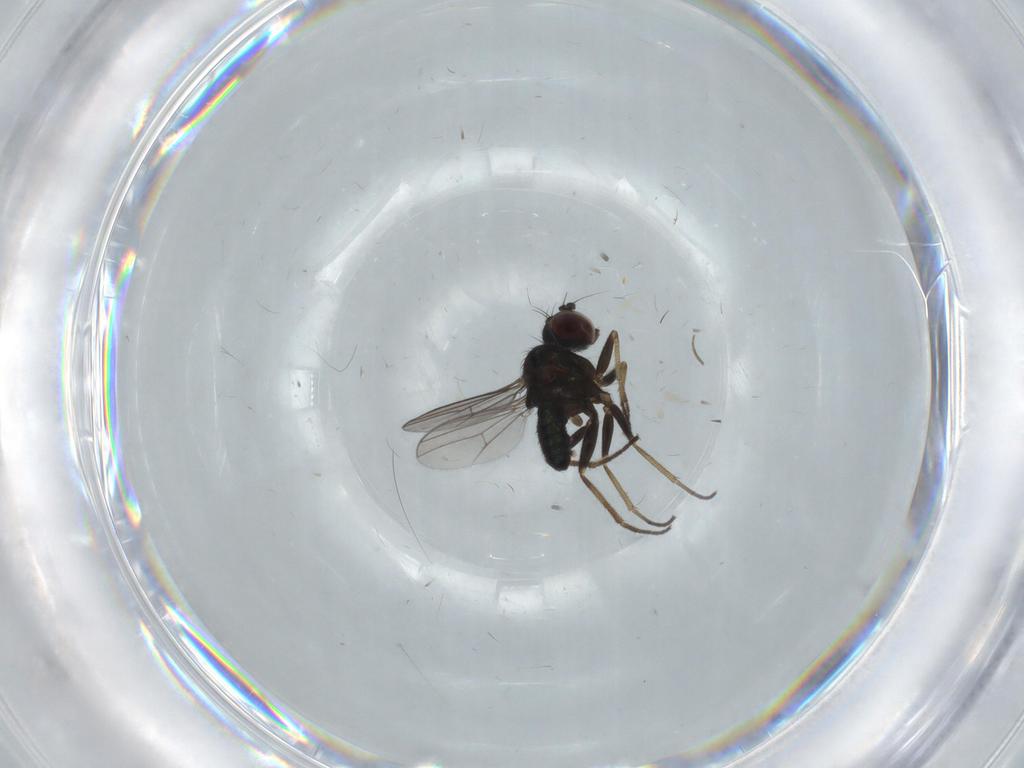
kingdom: Animalia
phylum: Arthropoda
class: Insecta
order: Diptera
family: Dolichopodidae
